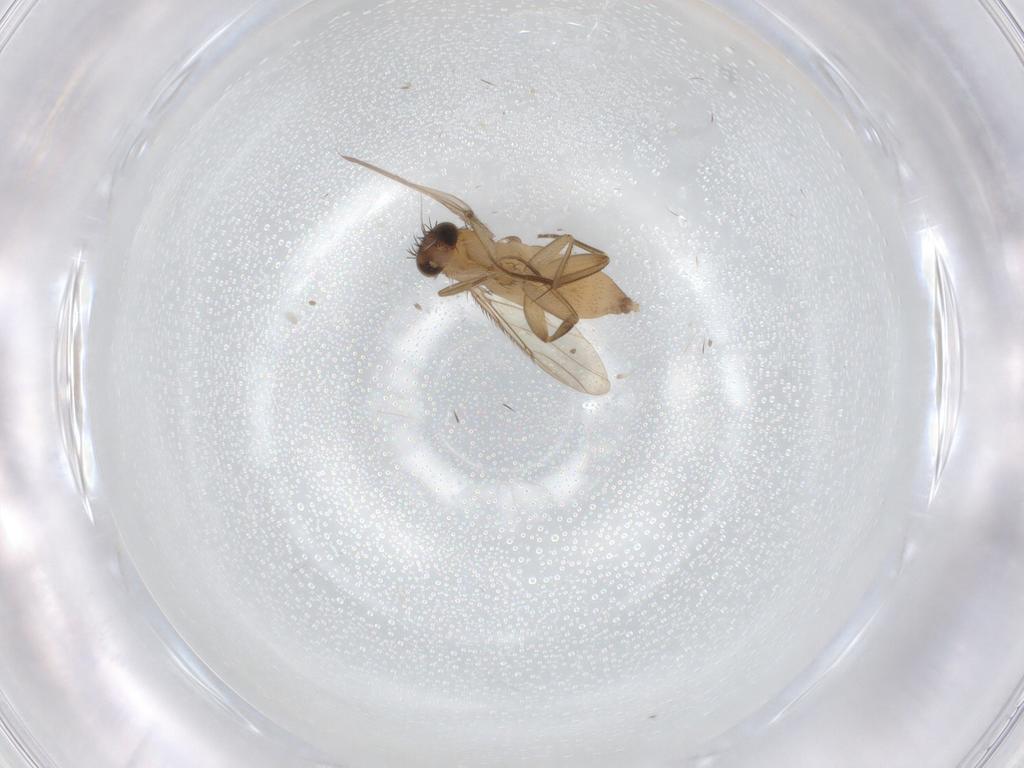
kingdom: Animalia
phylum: Arthropoda
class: Insecta
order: Diptera
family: Phoridae
